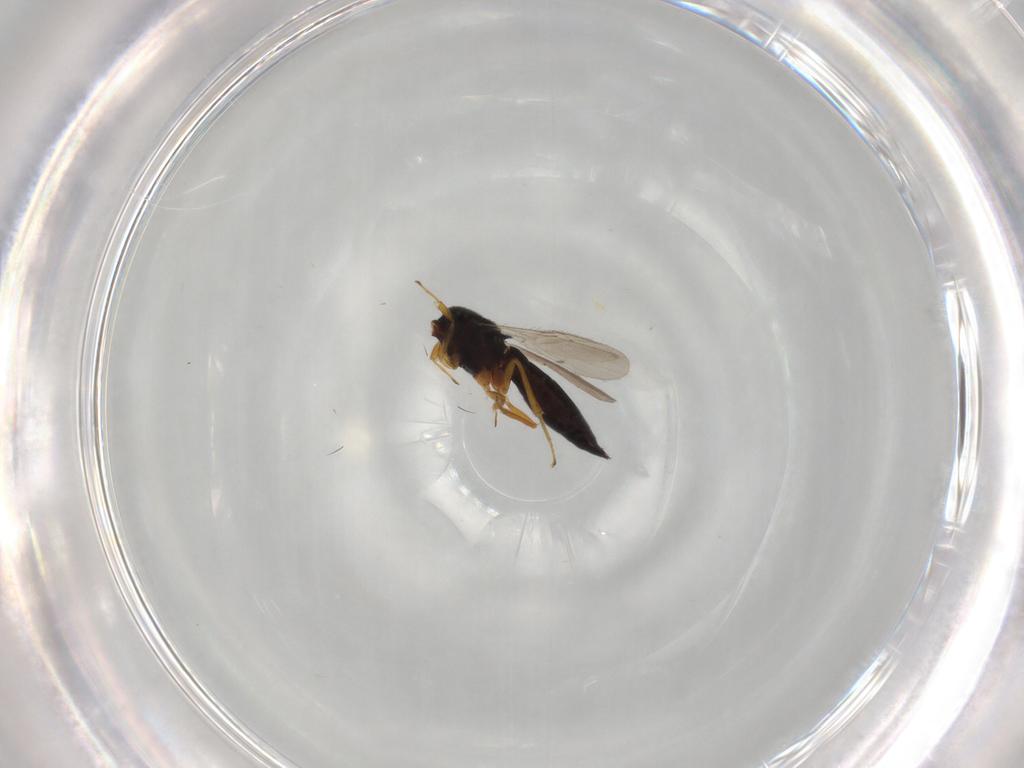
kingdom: Animalia
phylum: Arthropoda
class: Insecta
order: Hymenoptera
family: Scelionidae
